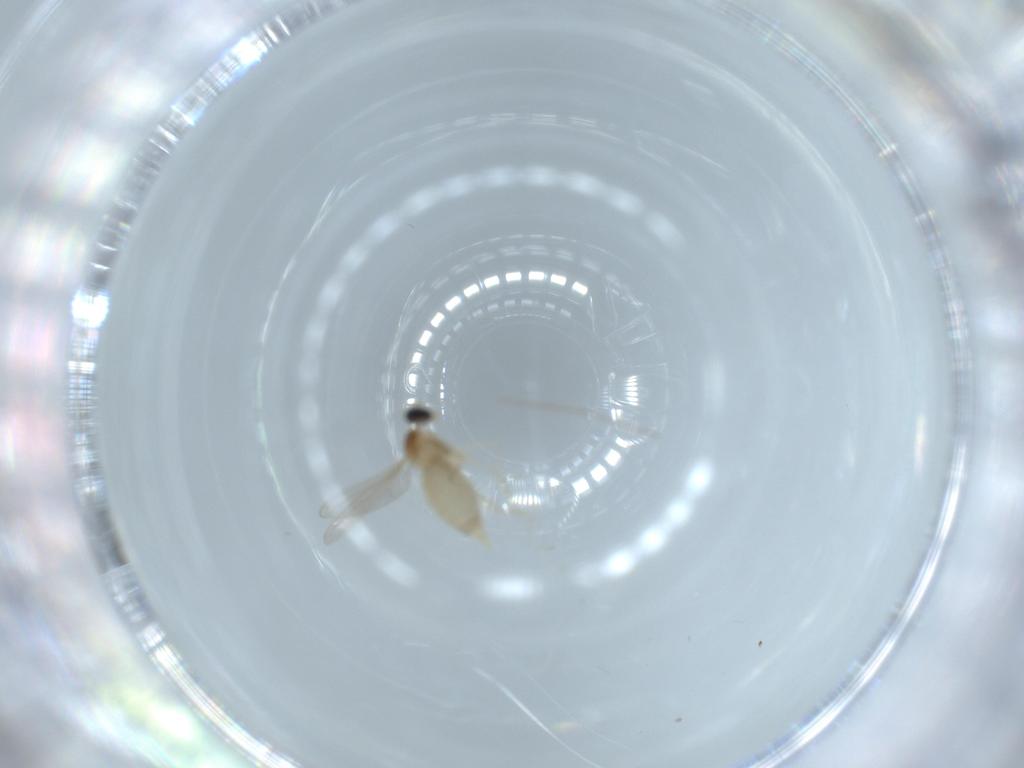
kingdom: Animalia
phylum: Arthropoda
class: Insecta
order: Diptera
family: Cecidomyiidae
